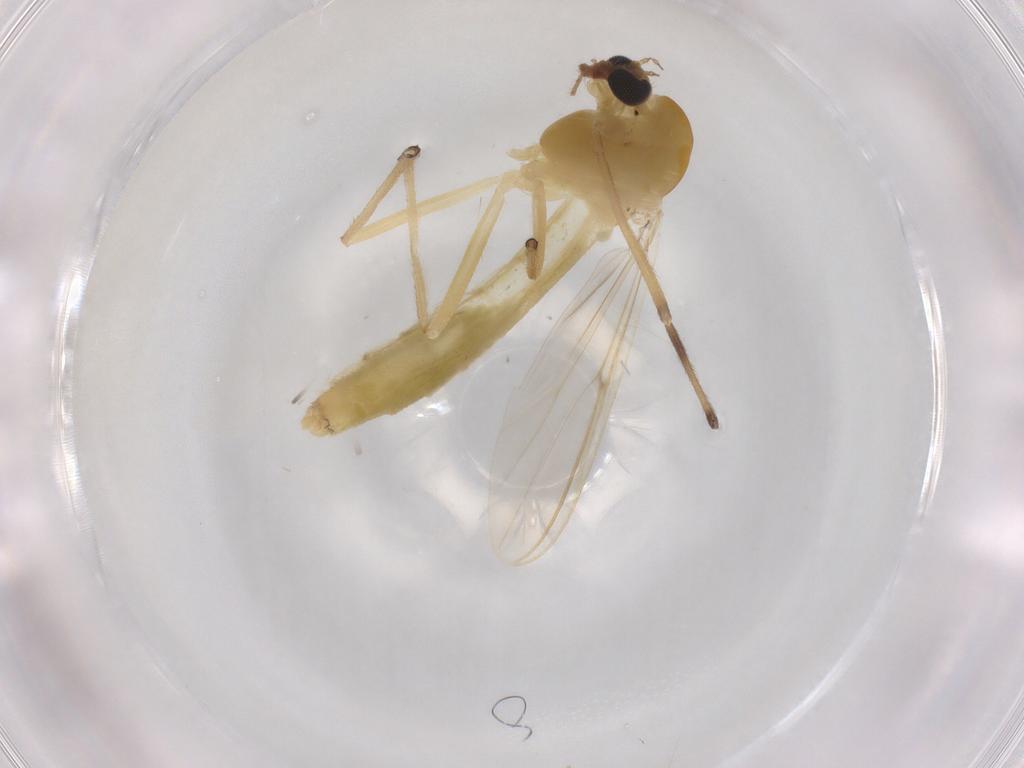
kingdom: Animalia
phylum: Arthropoda
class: Insecta
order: Diptera
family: Chironomidae
